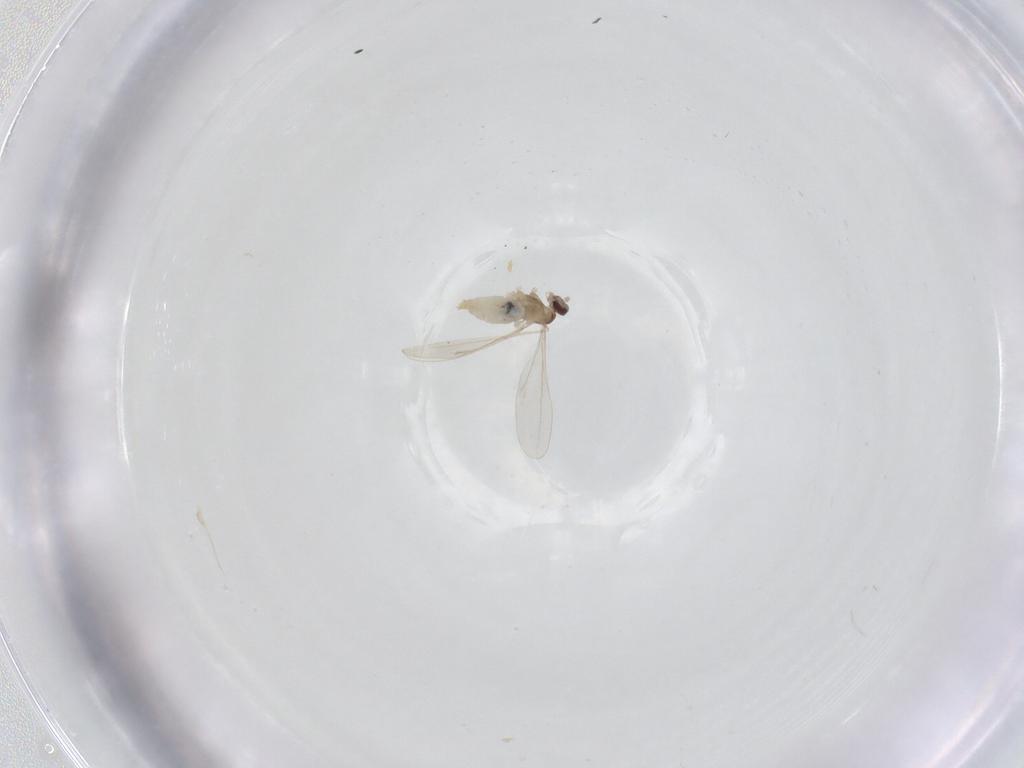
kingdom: Animalia
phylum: Arthropoda
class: Insecta
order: Diptera
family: Cecidomyiidae
